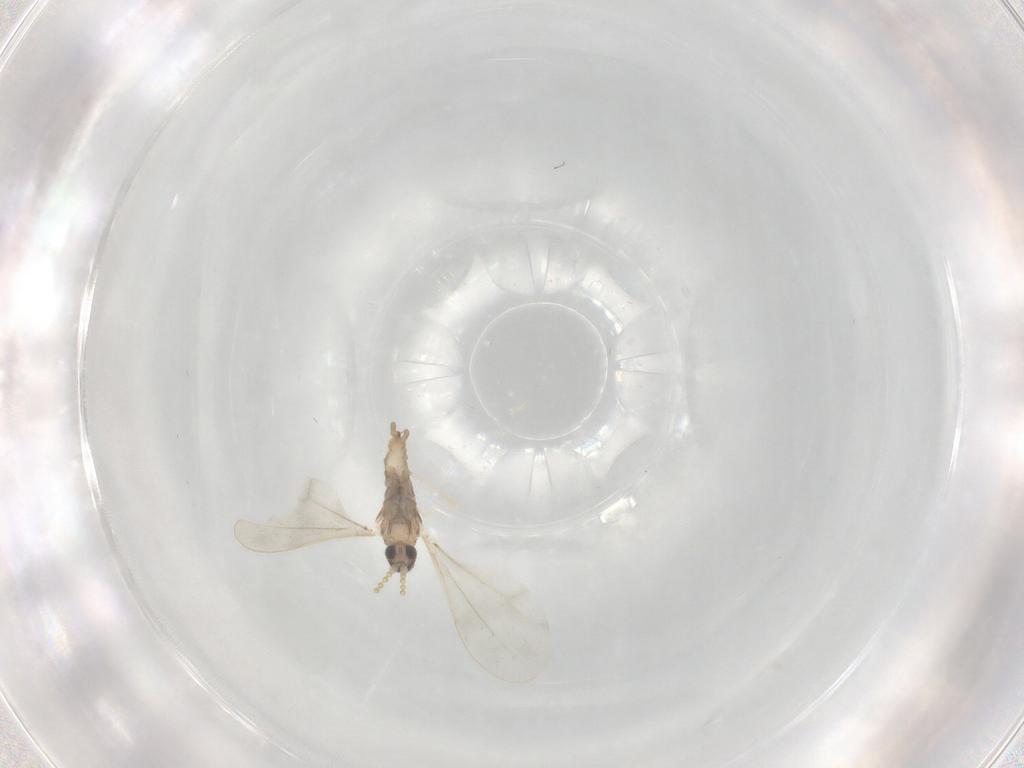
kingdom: Animalia
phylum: Arthropoda
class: Insecta
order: Diptera
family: Cecidomyiidae
